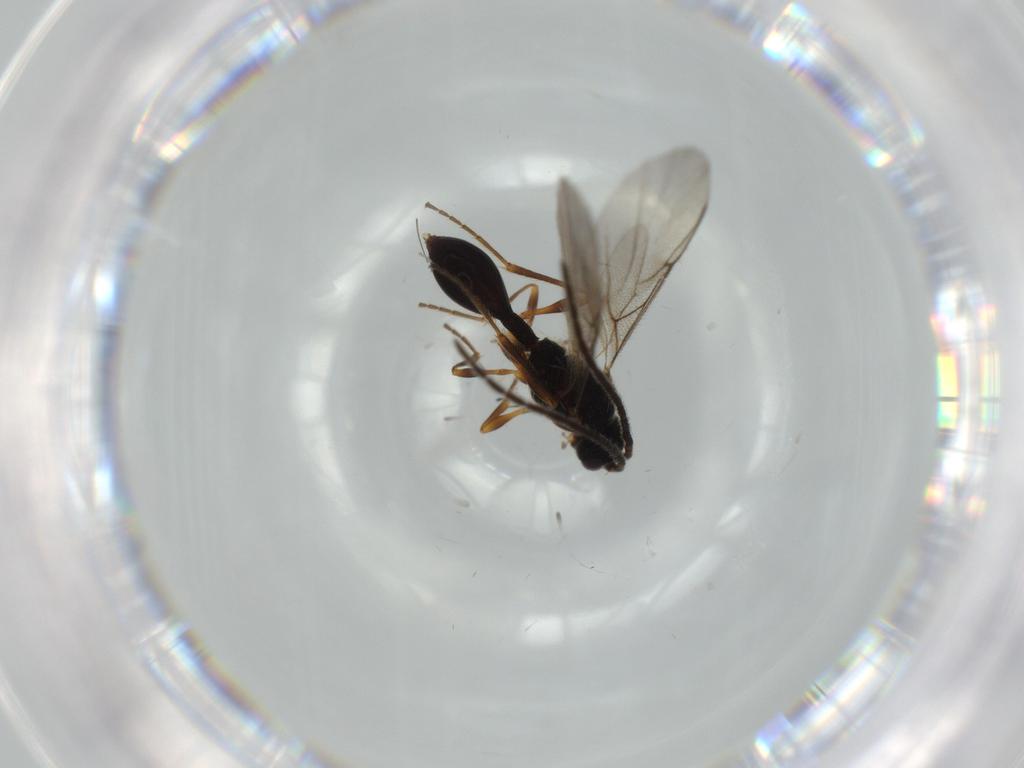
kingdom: Animalia
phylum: Arthropoda
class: Insecta
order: Hymenoptera
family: Diapriidae
